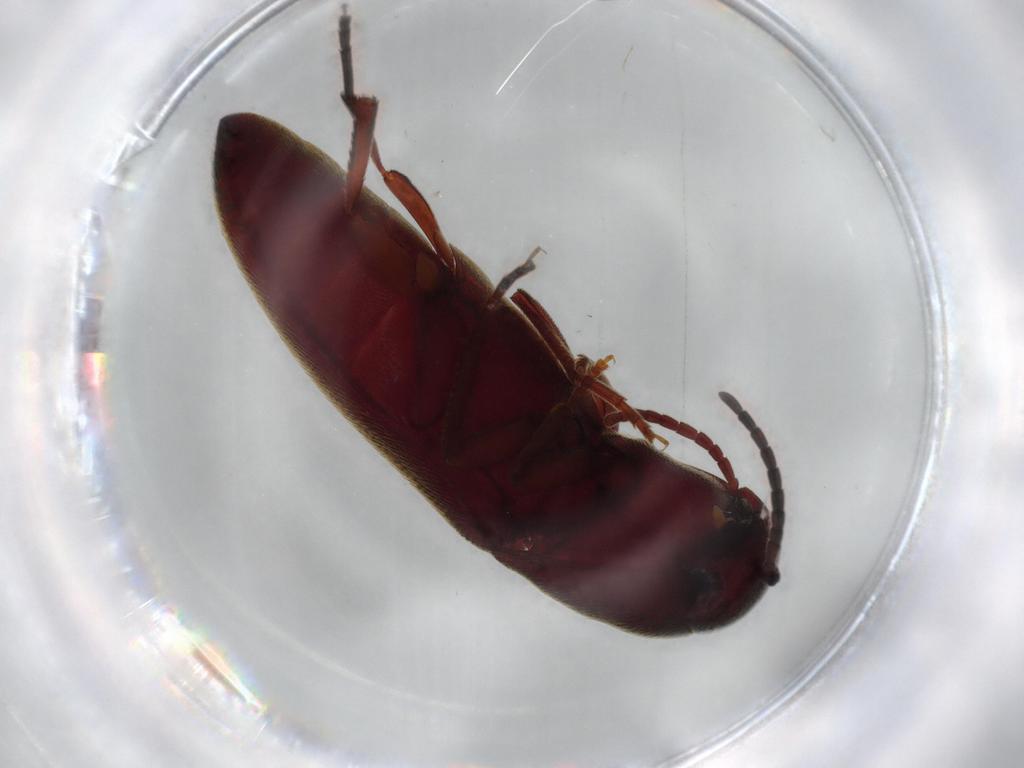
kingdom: Animalia
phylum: Arthropoda
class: Insecta
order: Coleoptera
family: Eucnemidae
